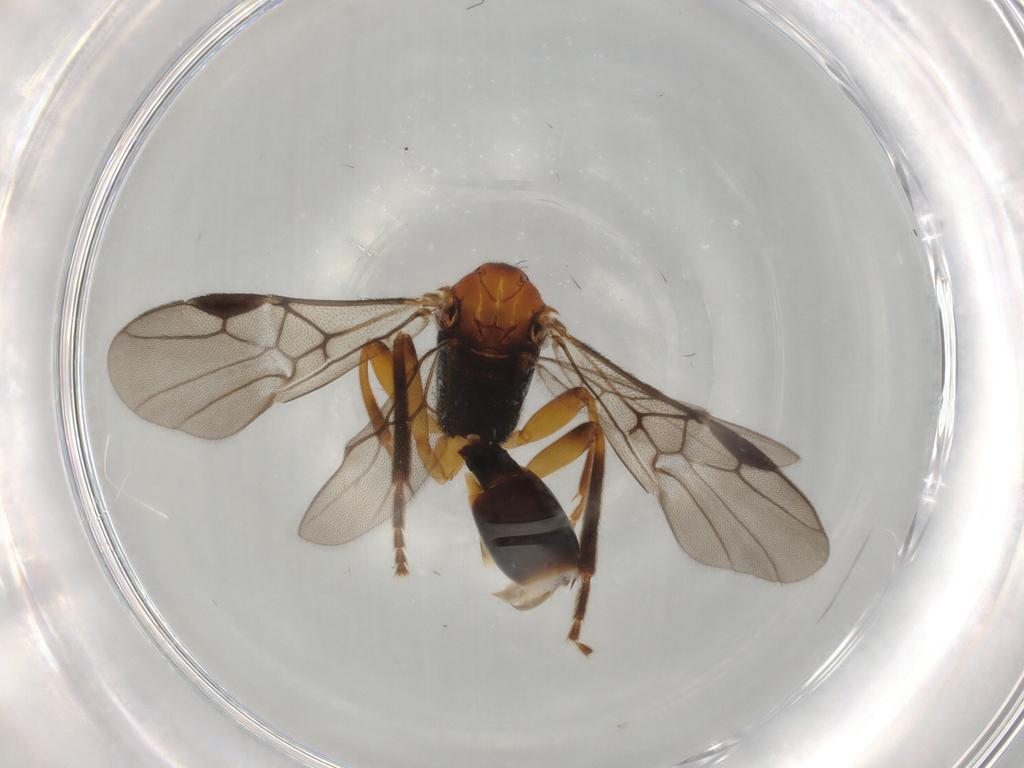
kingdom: Animalia
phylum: Arthropoda
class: Insecta
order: Hymenoptera
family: Braconidae
